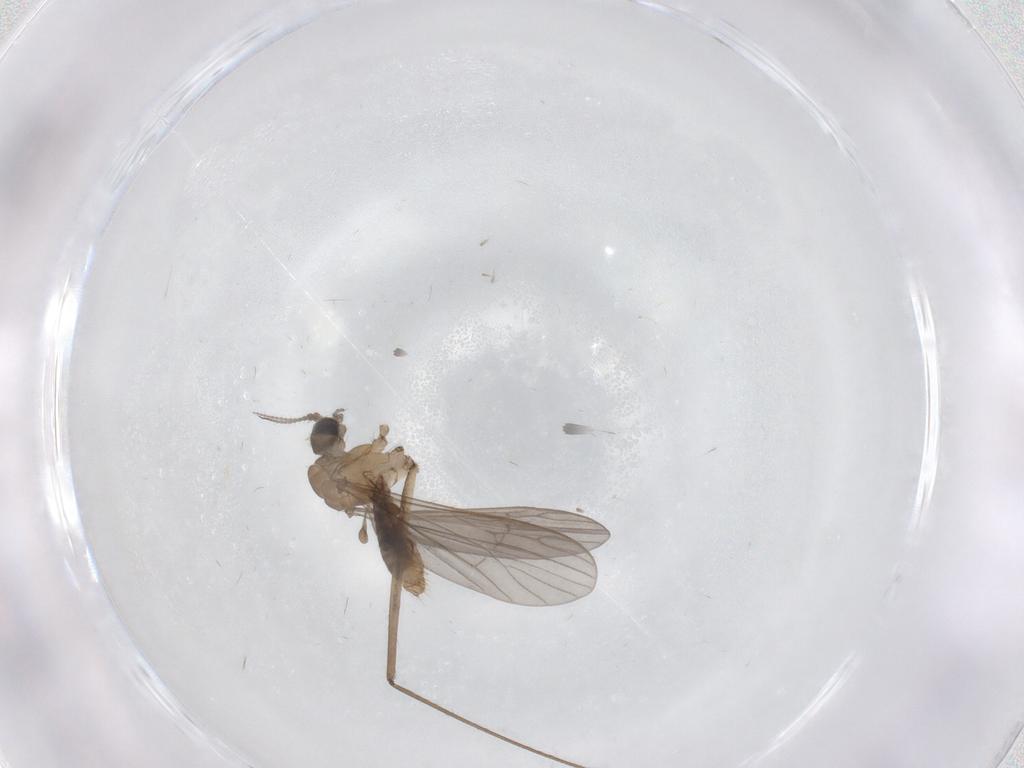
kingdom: Animalia
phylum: Arthropoda
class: Insecta
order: Diptera
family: Limoniidae
